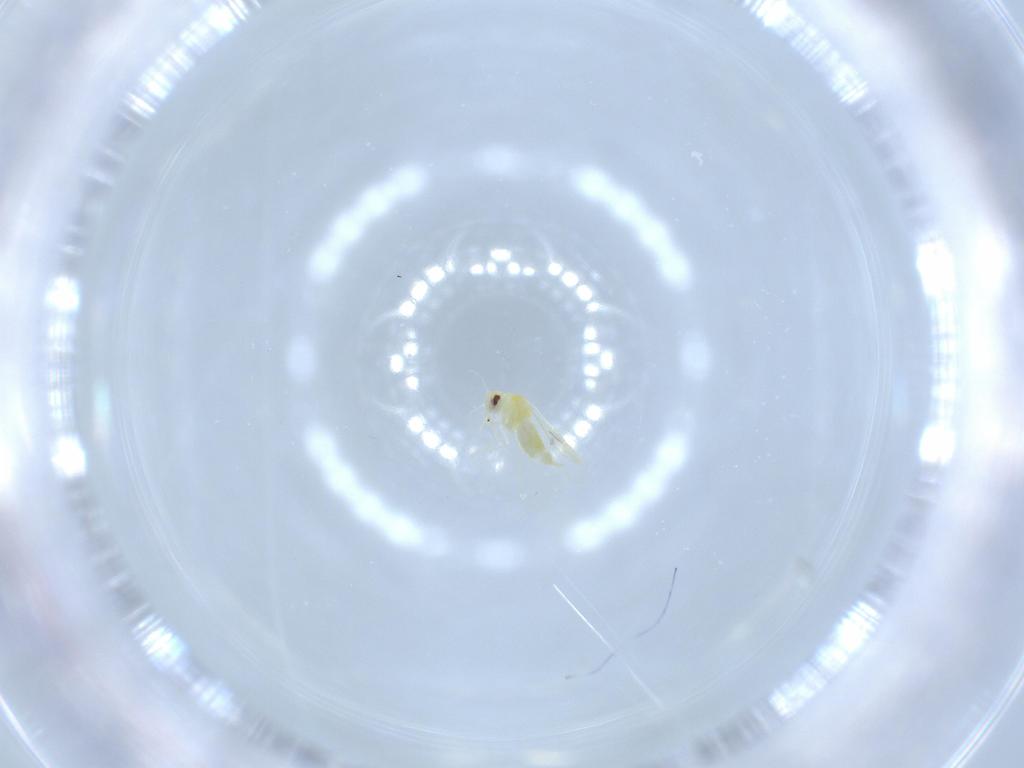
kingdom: Animalia
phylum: Arthropoda
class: Insecta
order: Hemiptera
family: Aleyrodidae
